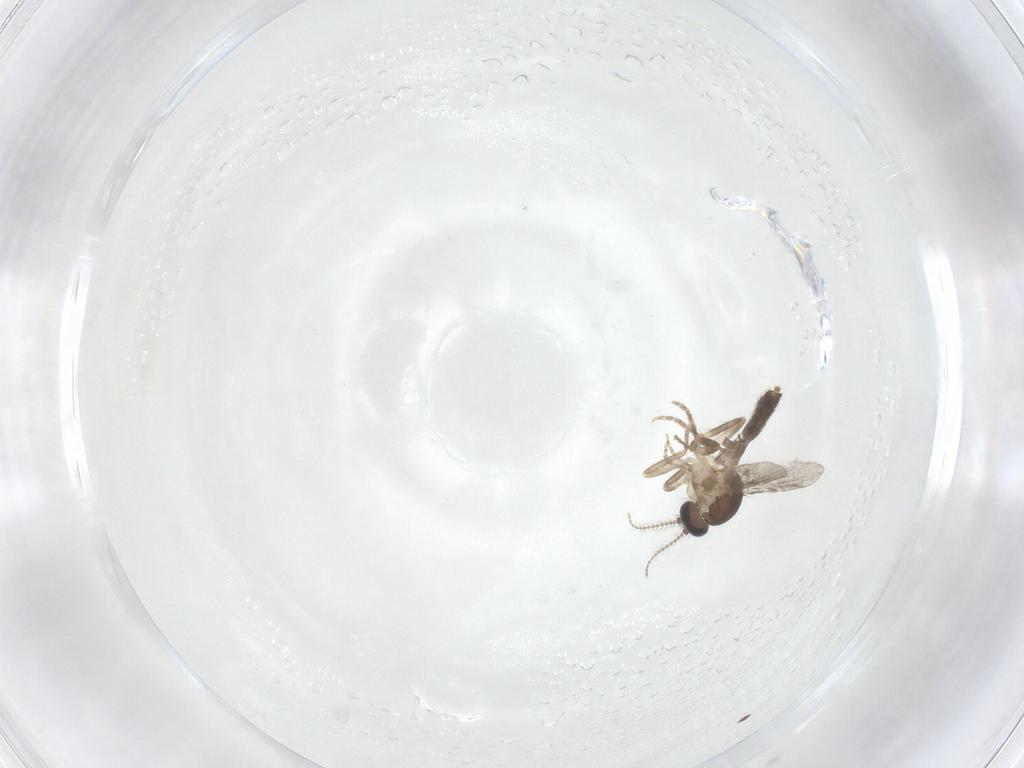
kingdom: Animalia
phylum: Arthropoda
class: Insecta
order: Diptera
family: Ceratopogonidae
